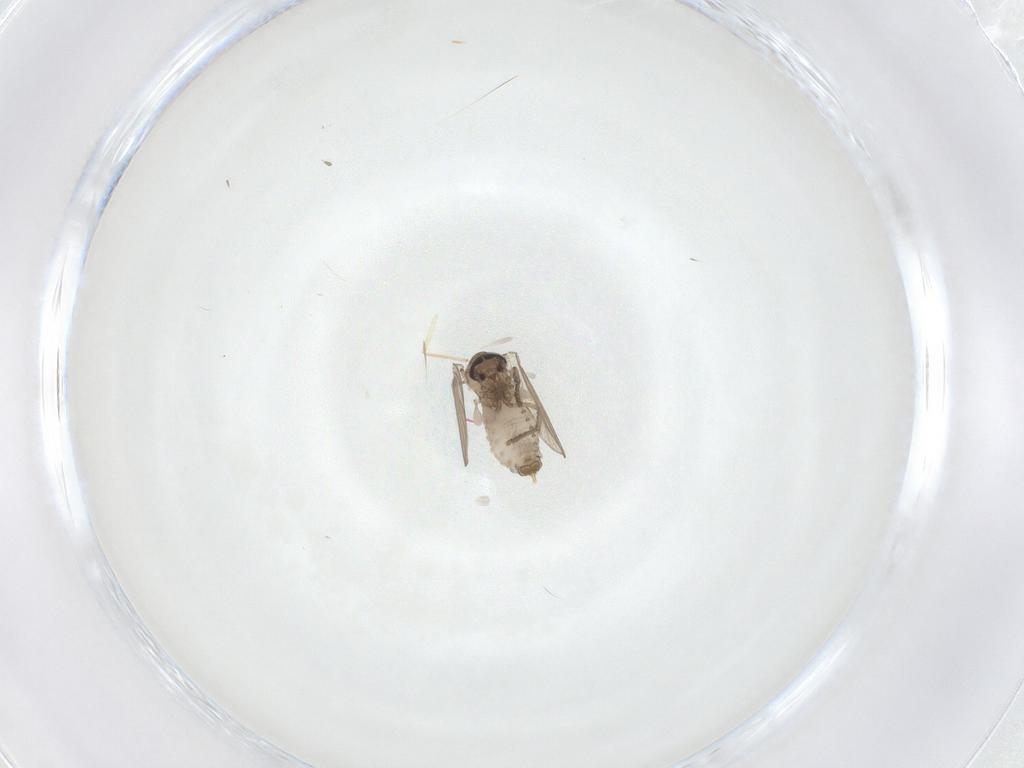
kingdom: Animalia
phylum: Arthropoda
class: Insecta
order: Diptera
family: Psychodidae
